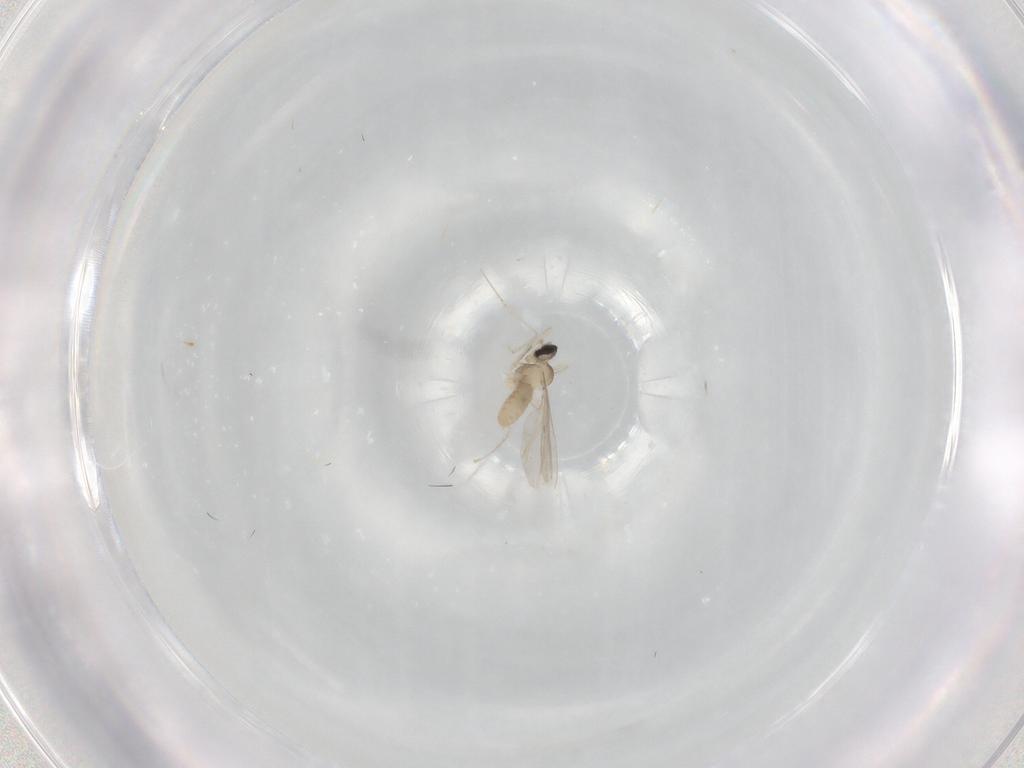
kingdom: Animalia
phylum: Arthropoda
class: Insecta
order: Diptera
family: Cecidomyiidae
